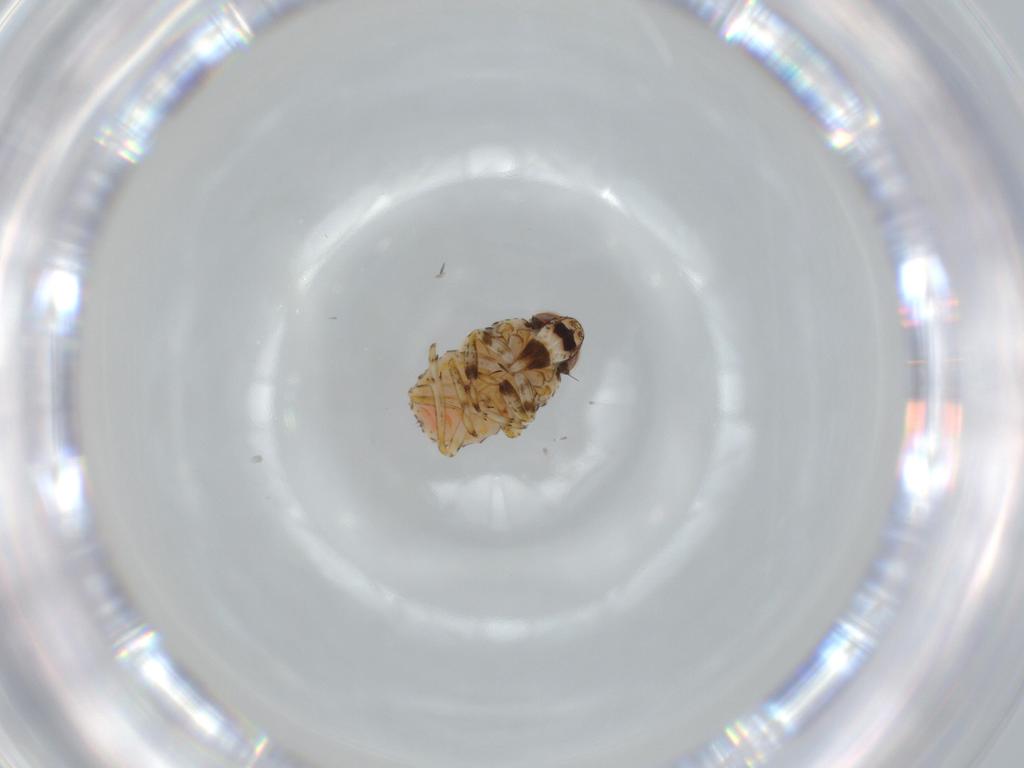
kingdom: Animalia
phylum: Arthropoda
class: Insecta
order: Hemiptera
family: Issidae
